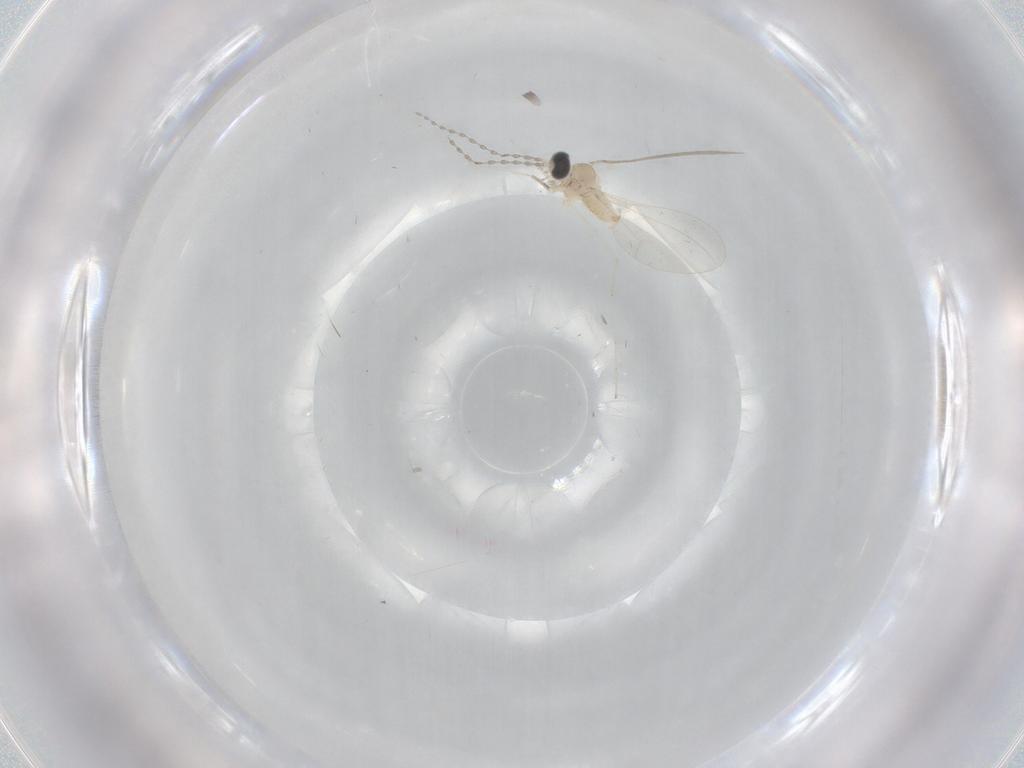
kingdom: Animalia
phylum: Arthropoda
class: Insecta
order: Diptera
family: Cecidomyiidae
